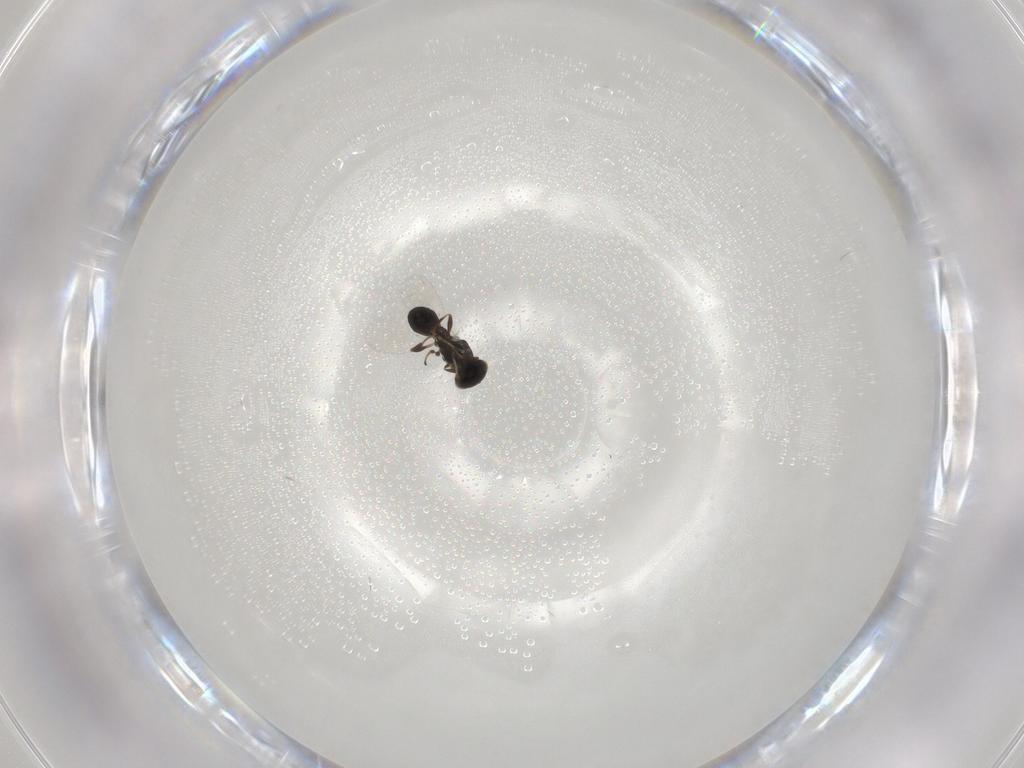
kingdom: Animalia
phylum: Arthropoda
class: Insecta
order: Hymenoptera
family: Platygastridae
